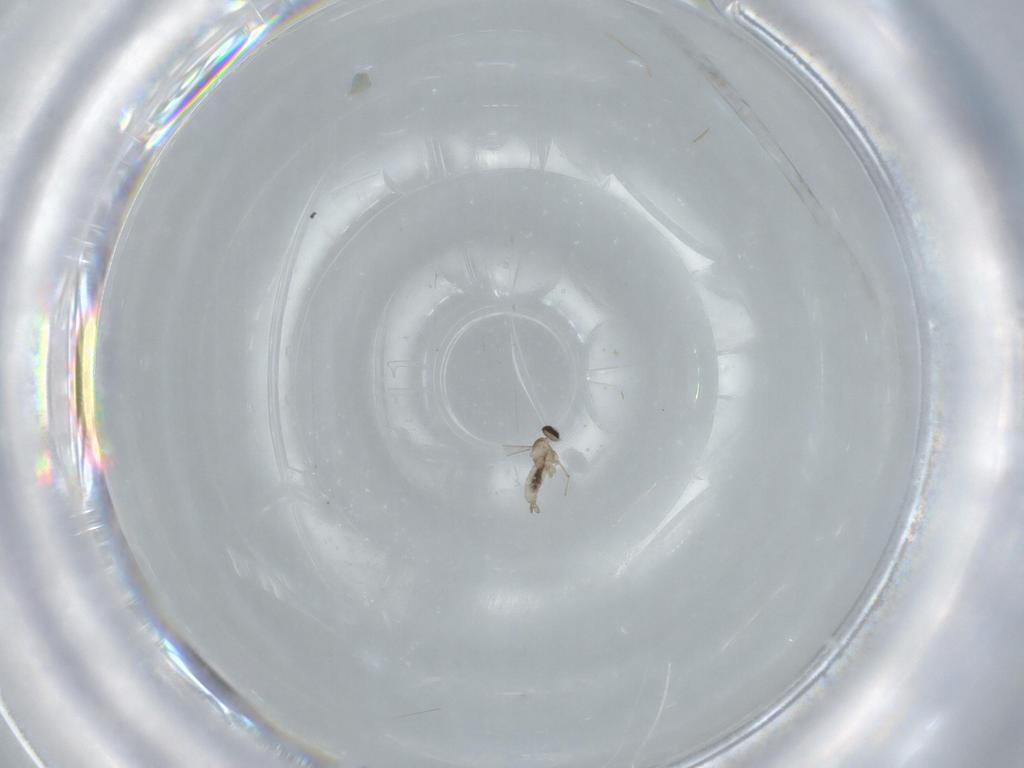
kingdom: Animalia
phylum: Arthropoda
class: Insecta
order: Diptera
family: Cecidomyiidae
